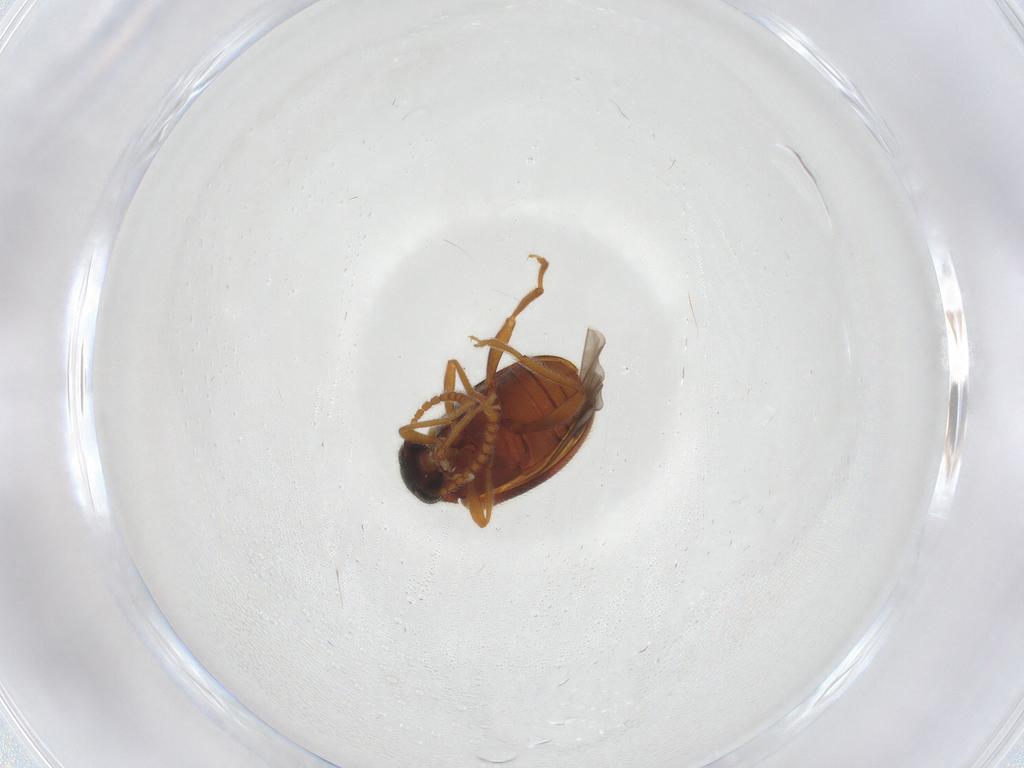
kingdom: Animalia
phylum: Arthropoda
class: Insecta
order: Coleoptera
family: Aderidae
